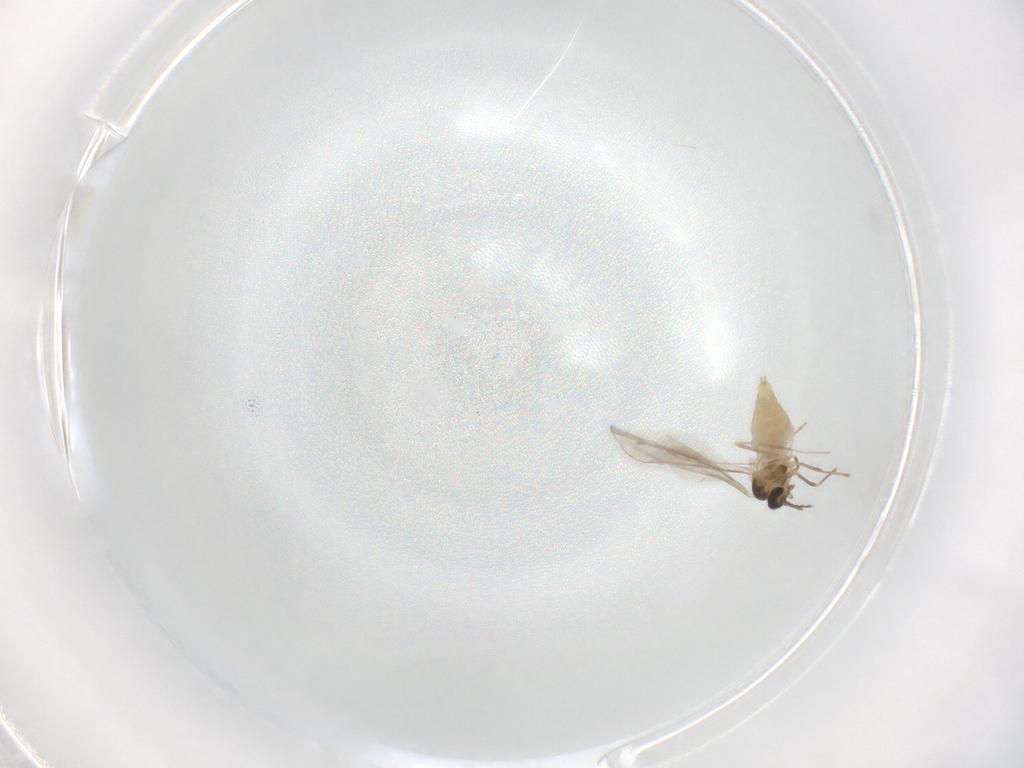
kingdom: Animalia
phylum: Arthropoda
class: Insecta
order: Diptera
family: Cecidomyiidae
